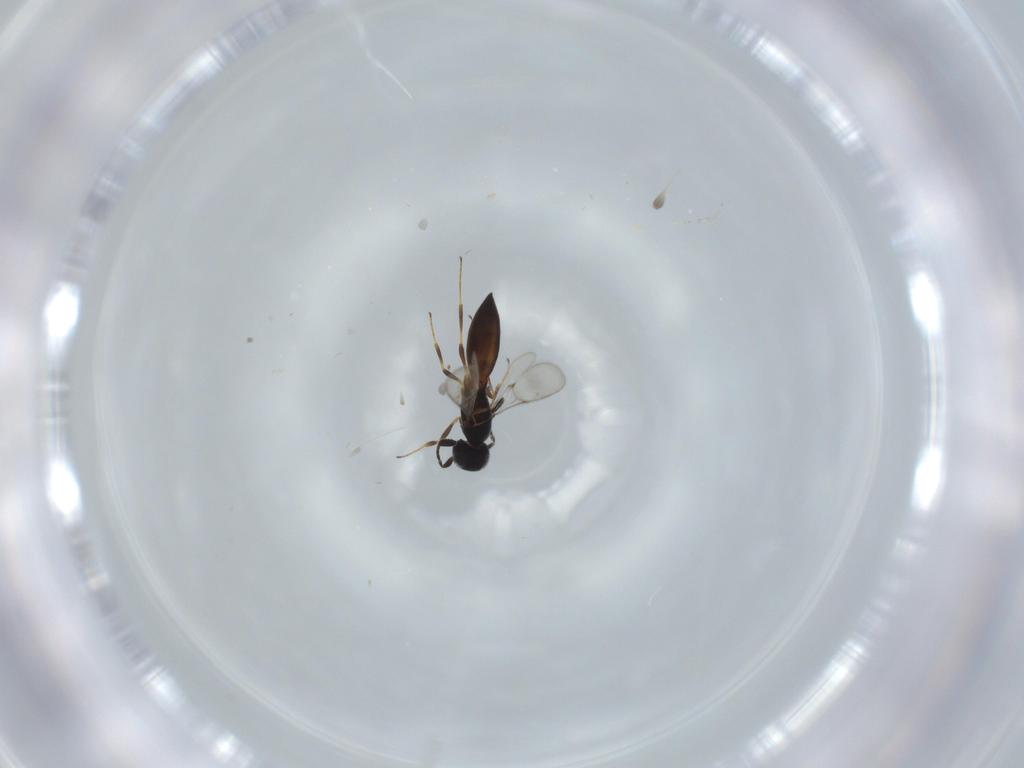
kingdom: Animalia
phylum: Arthropoda
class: Insecta
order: Hymenoptera
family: Scelionidae
